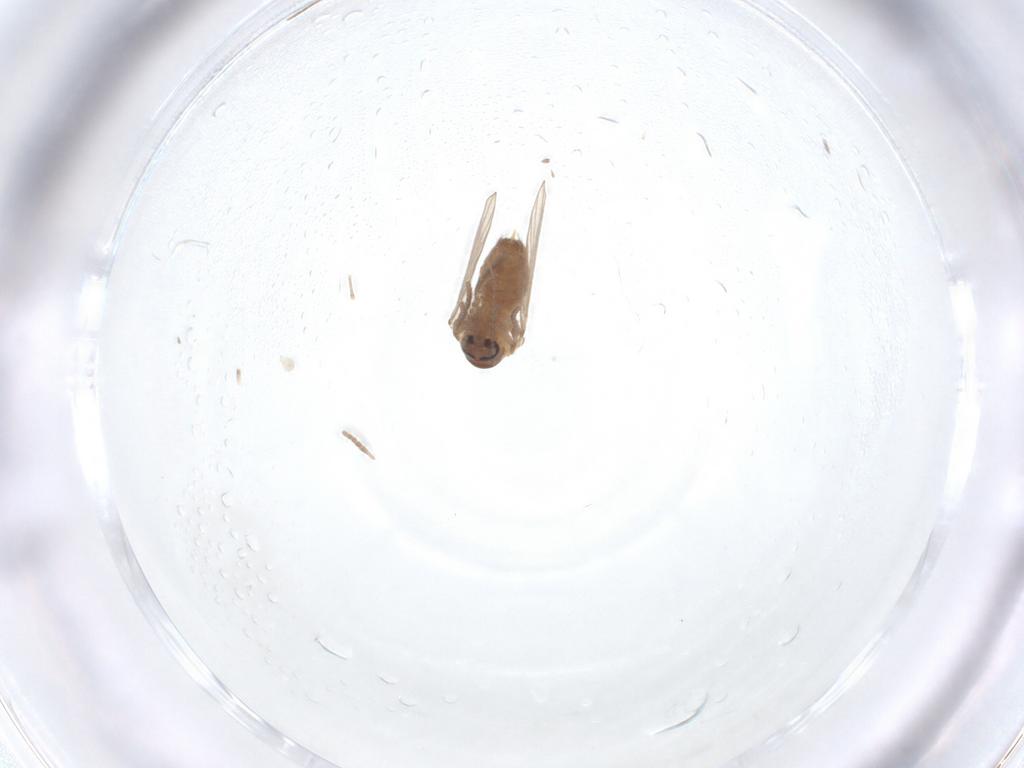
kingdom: Animalia
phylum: Arthropoda
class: Insecta
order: Diptera
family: Psychodidae
